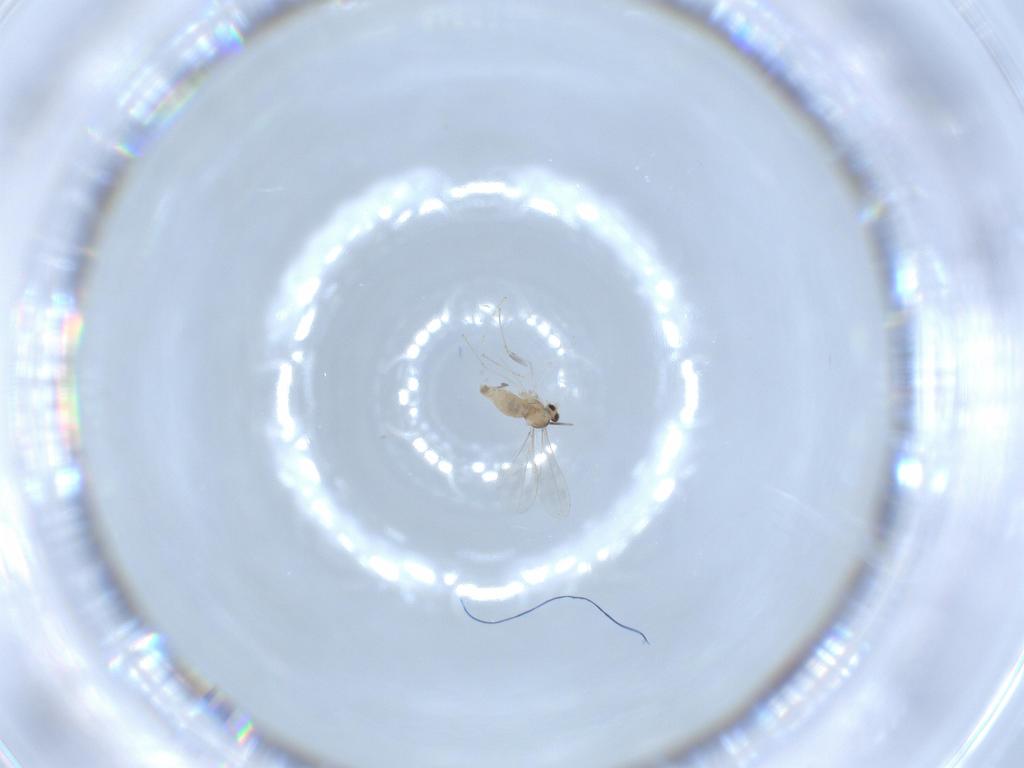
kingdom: Animalia
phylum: Arthropoda
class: Insecta
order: Diptera
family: Cecidomyiidae
